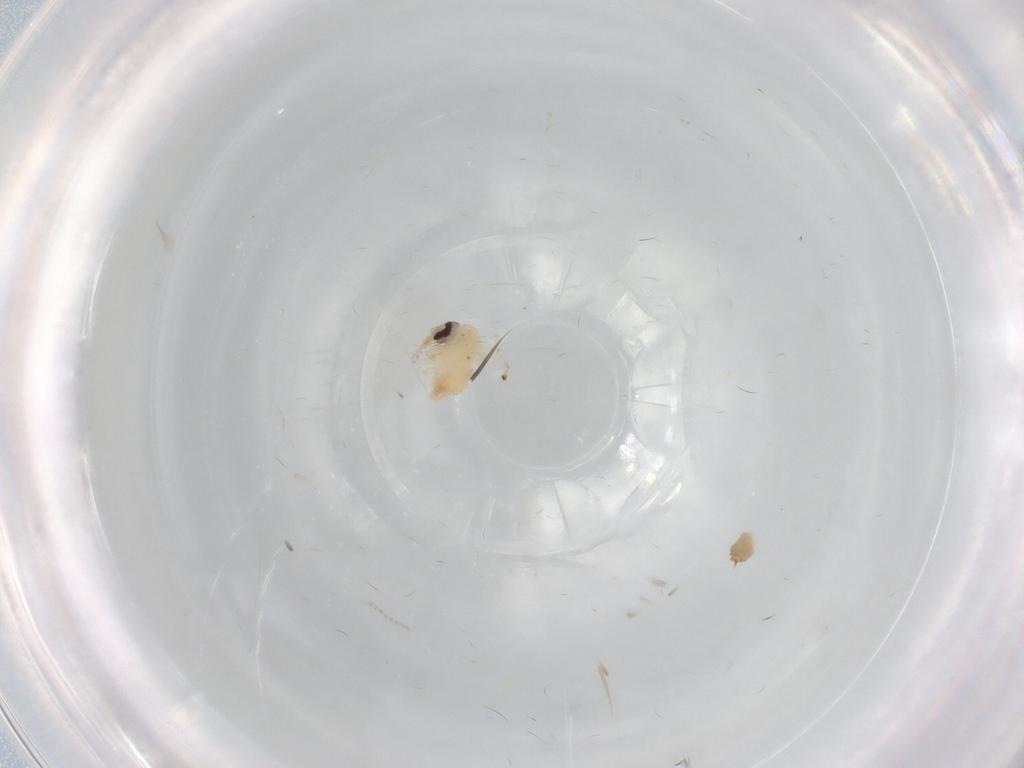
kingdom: Animalia
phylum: Arthropoda
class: Insecta
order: Diptera
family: Psychodidae
